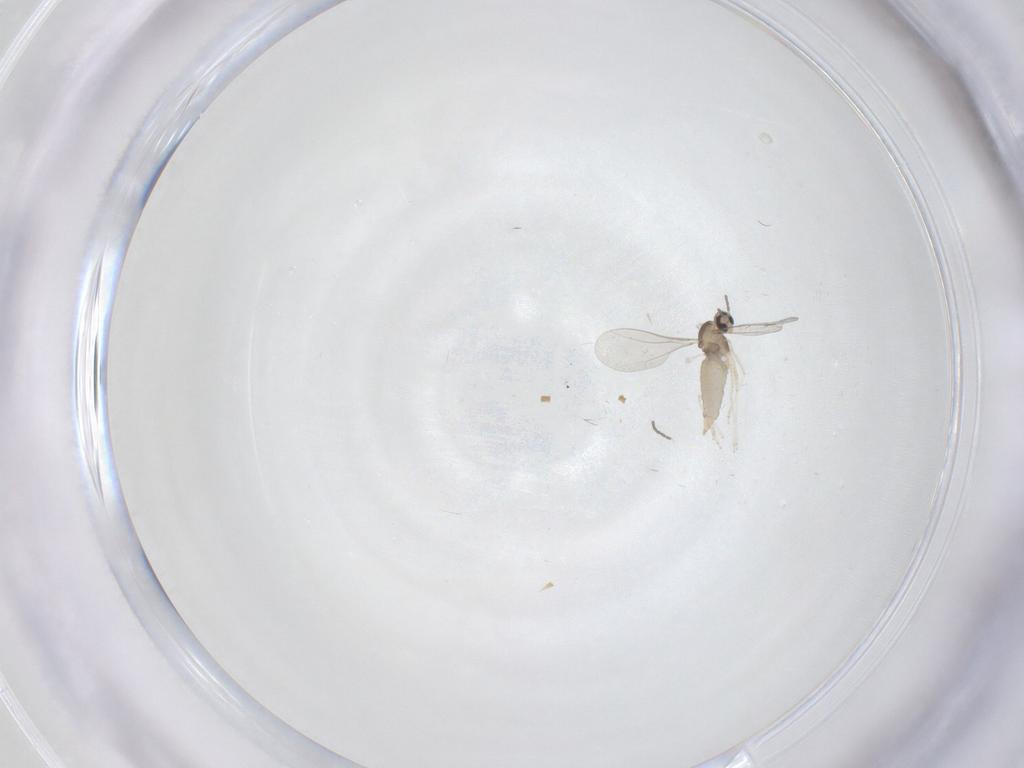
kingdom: Animalia
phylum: Arthropoda
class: Insecta
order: Diptera
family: Cecidomyiidae
